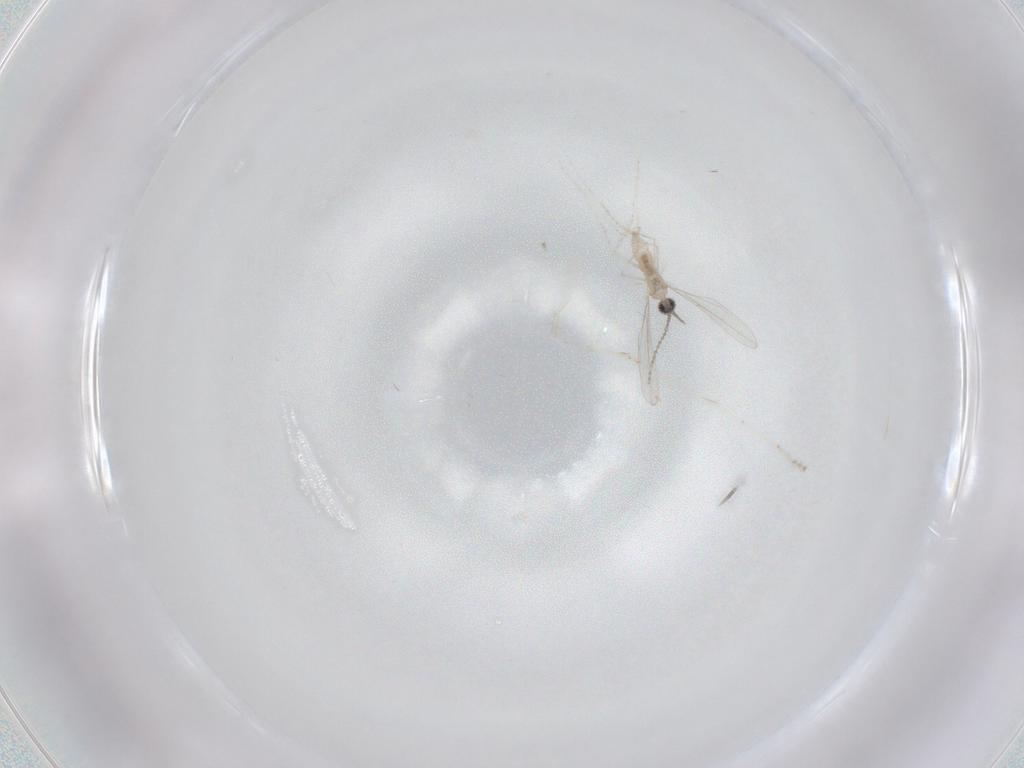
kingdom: Animalia
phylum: Arthropoda
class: Insecta
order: Diptera
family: Cecidomyiidae
